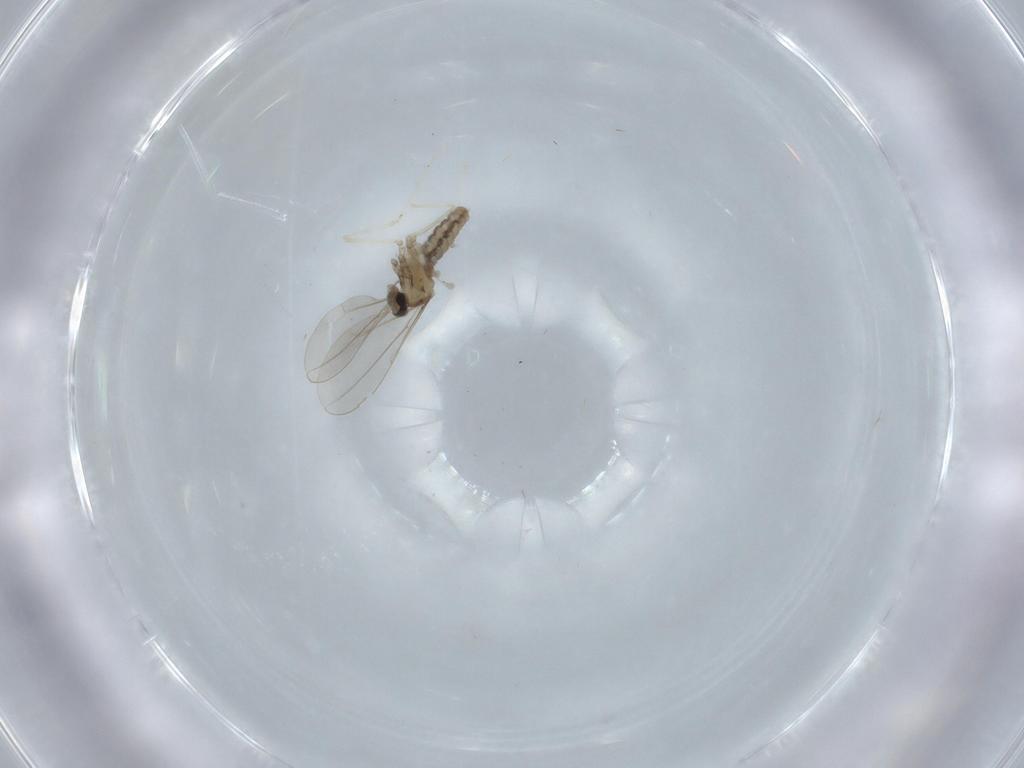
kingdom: Animalia
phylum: Arthropoda
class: Insecta
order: Diptera
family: Cecidomyiidae
